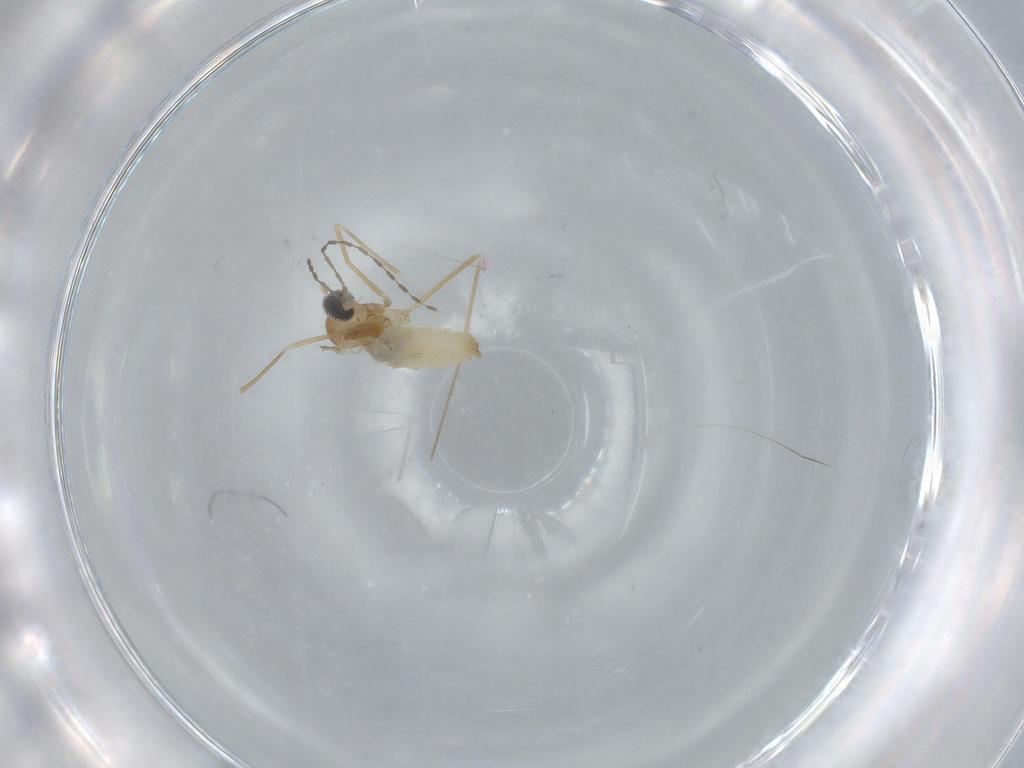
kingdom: Animalia
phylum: Arthropoda
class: Insecta
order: Diptera
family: Cecidomyiidae
